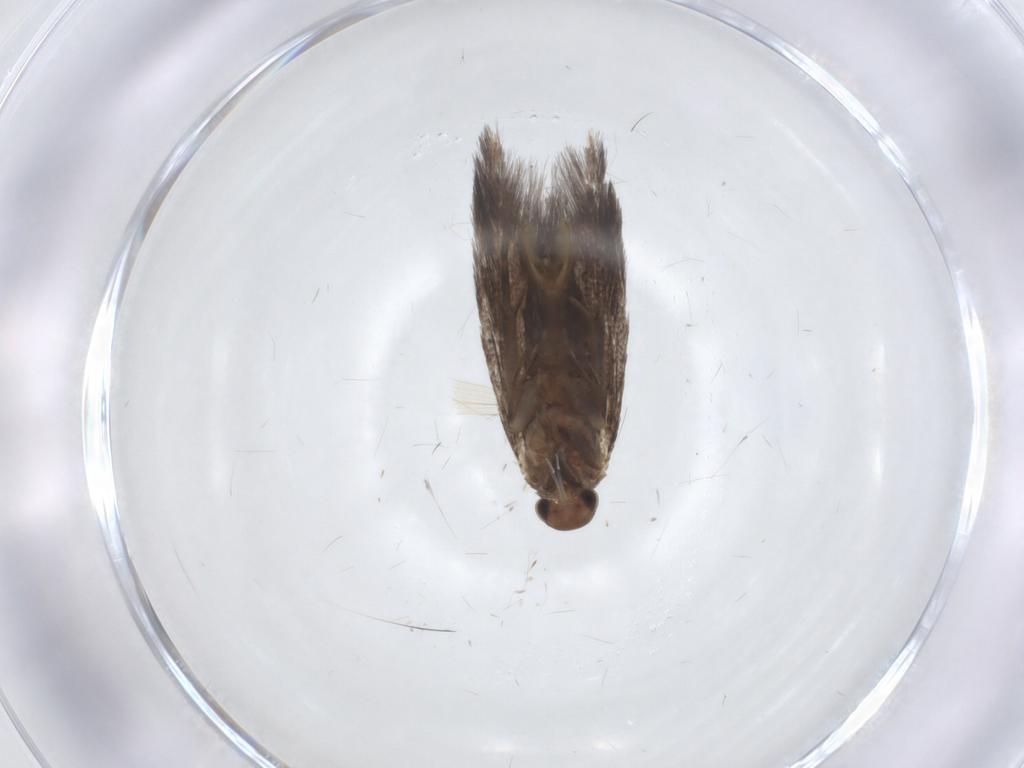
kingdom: Animalia
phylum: Arthropoda
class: Insecta
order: Lepidoptera
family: Elachistidae
